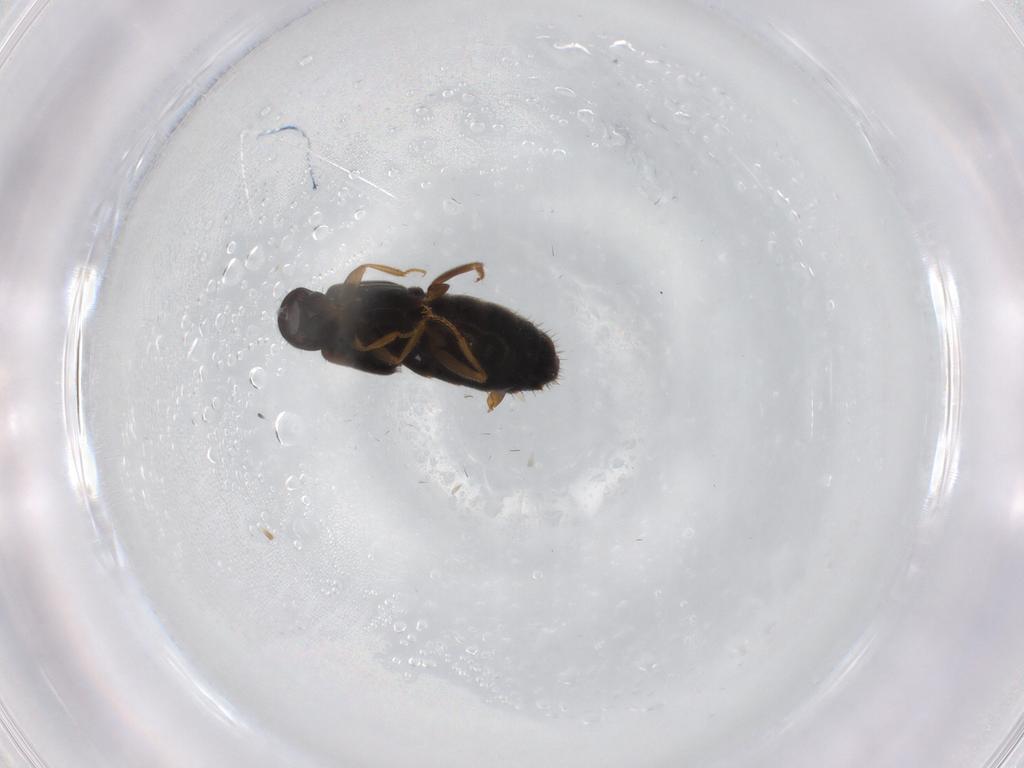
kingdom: Animalia
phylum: Arthropoda
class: Insecta
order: Coleoptera
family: Staphylinidae
